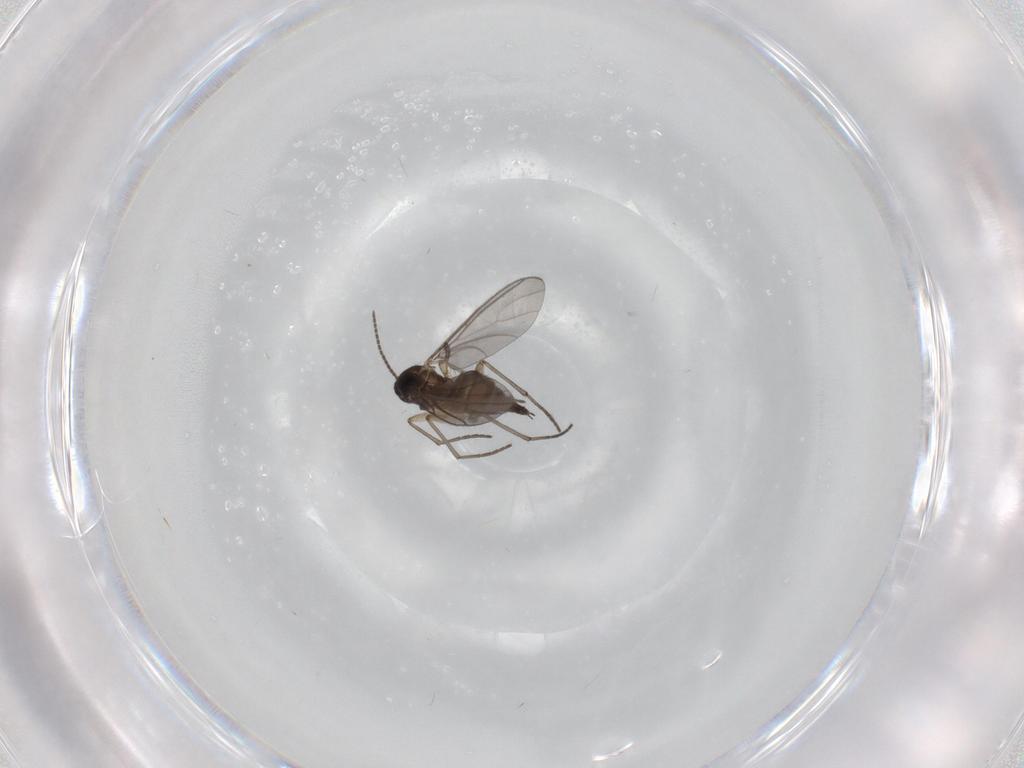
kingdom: Animalia
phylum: Arthropoda
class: Insecta
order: Diptera
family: Sciaridae
